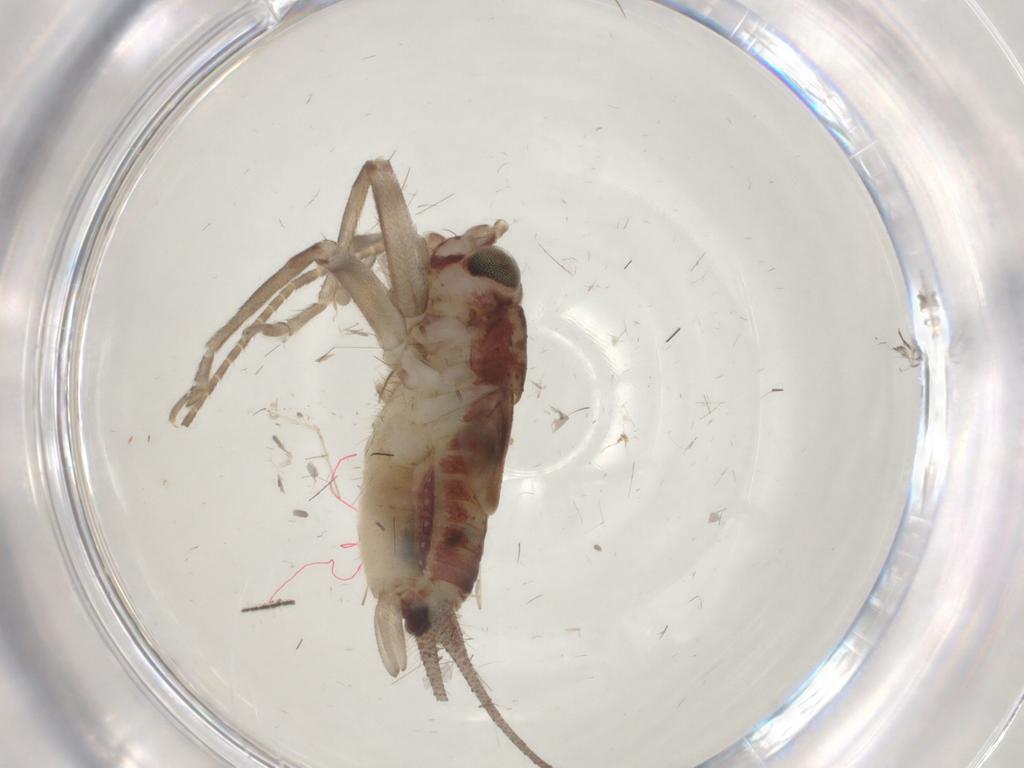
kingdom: Animalia
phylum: Arthropoda
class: Insecta
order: Orthoptera
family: Trigonidiidae
